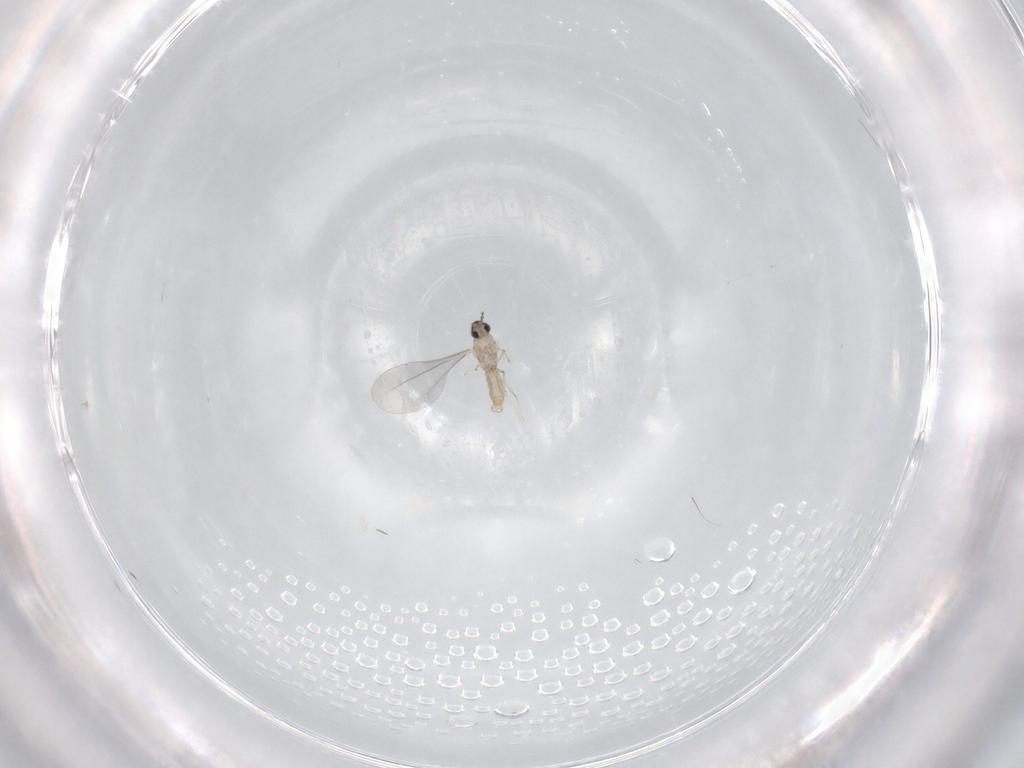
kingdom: Animalia
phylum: Arthropoda
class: Insecta
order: Diptera
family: Cecidomyiidae
